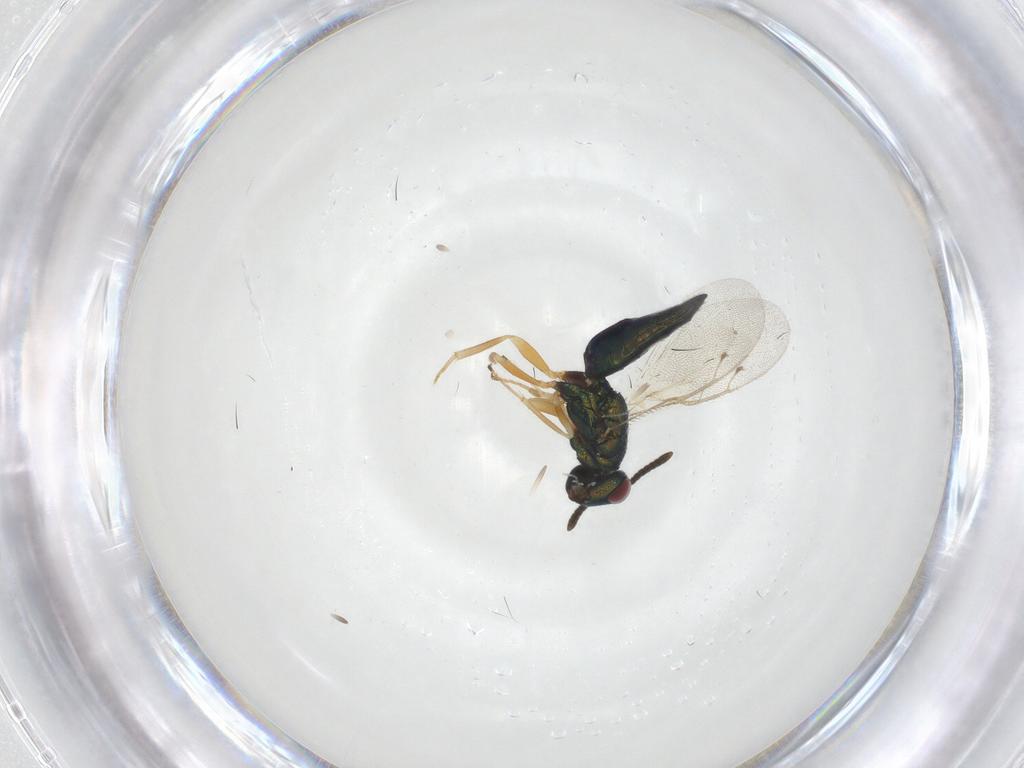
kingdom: Animalia
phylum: Arthropoda
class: Insecta
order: Hymenoptera
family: Pteromalidae
